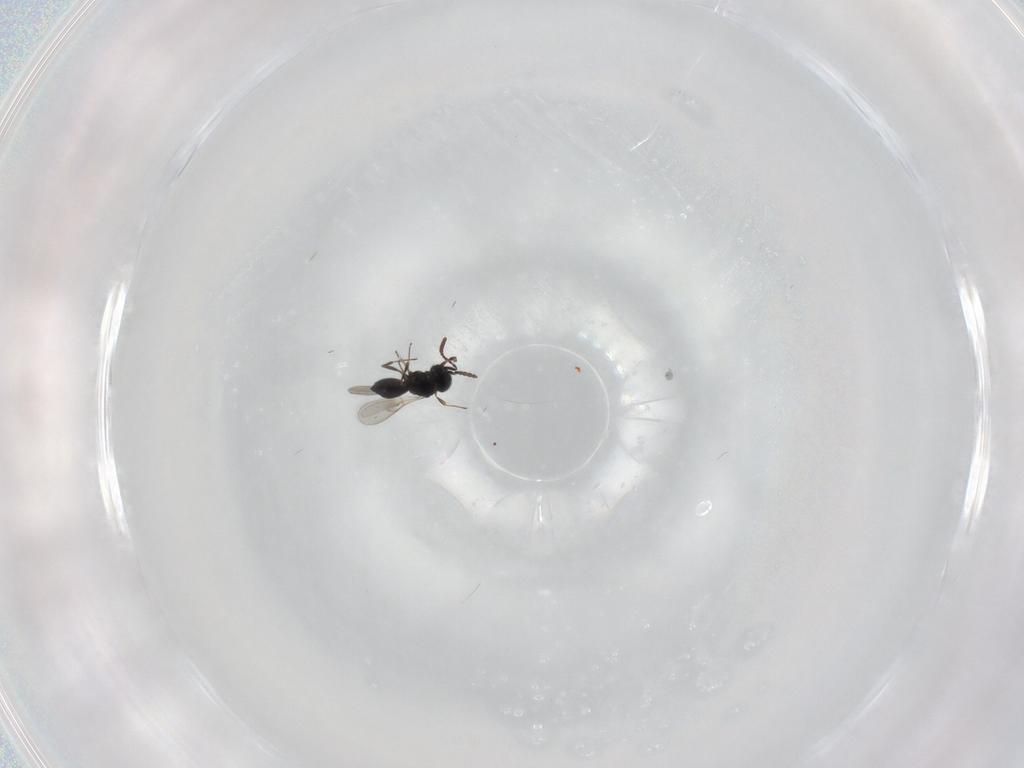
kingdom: Animalia
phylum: Arthropoda
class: Insecta
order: Hymenoptera
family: Scelionidae
